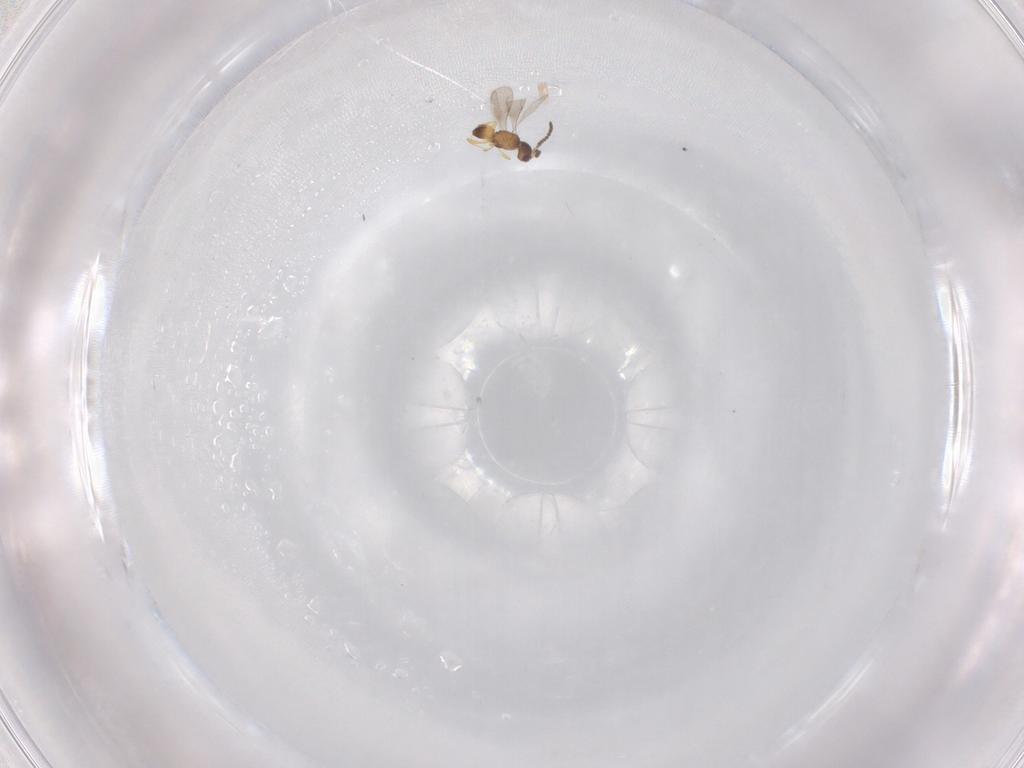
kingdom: Animalia
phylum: Arthropoda
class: Insecta
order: Hymenoptera
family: Ceraphronidae
